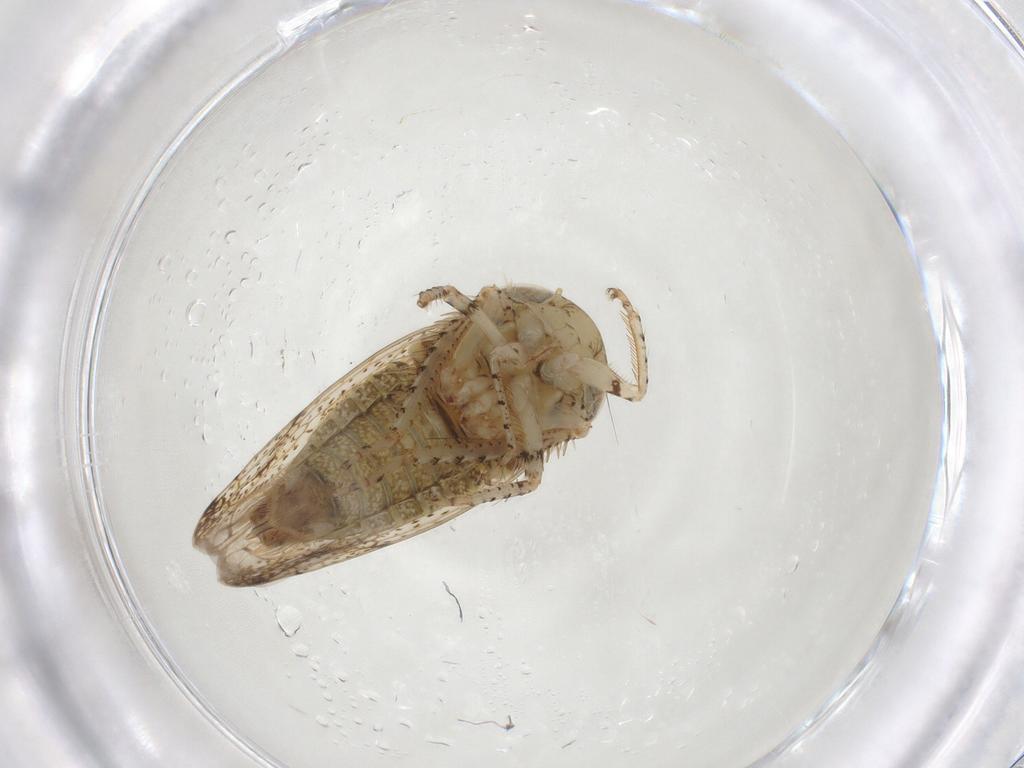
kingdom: Animalia
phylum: Arthropoda
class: Insecta
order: Hemiptera
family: Cicadellidae
